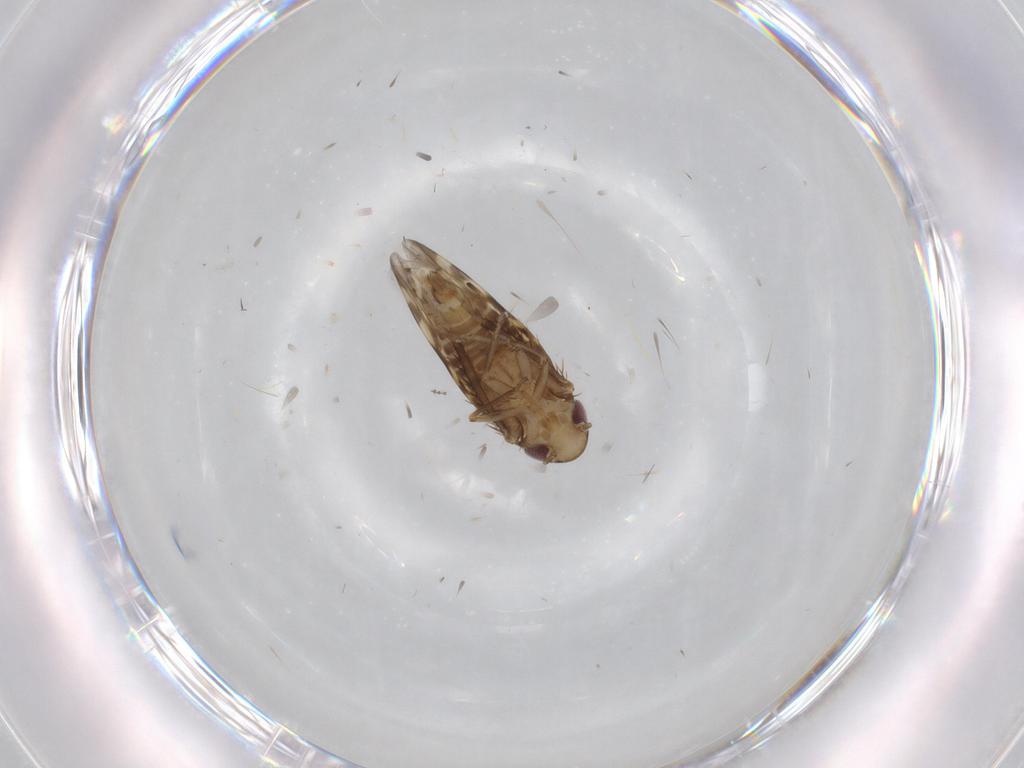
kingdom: Animalia
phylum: Arthropoda
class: Insecta
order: Hemiptera
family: Cicadellidae
